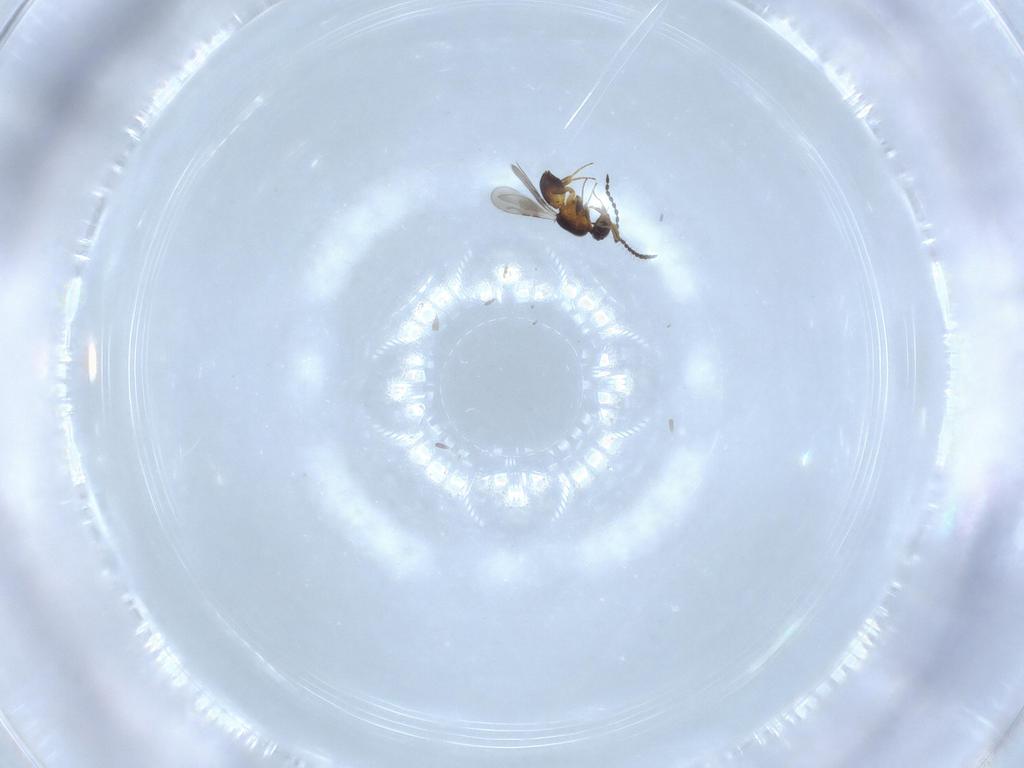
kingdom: Animalia
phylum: Arthropoda
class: Insecta
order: Hymenoptera
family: Ceraphronidae
